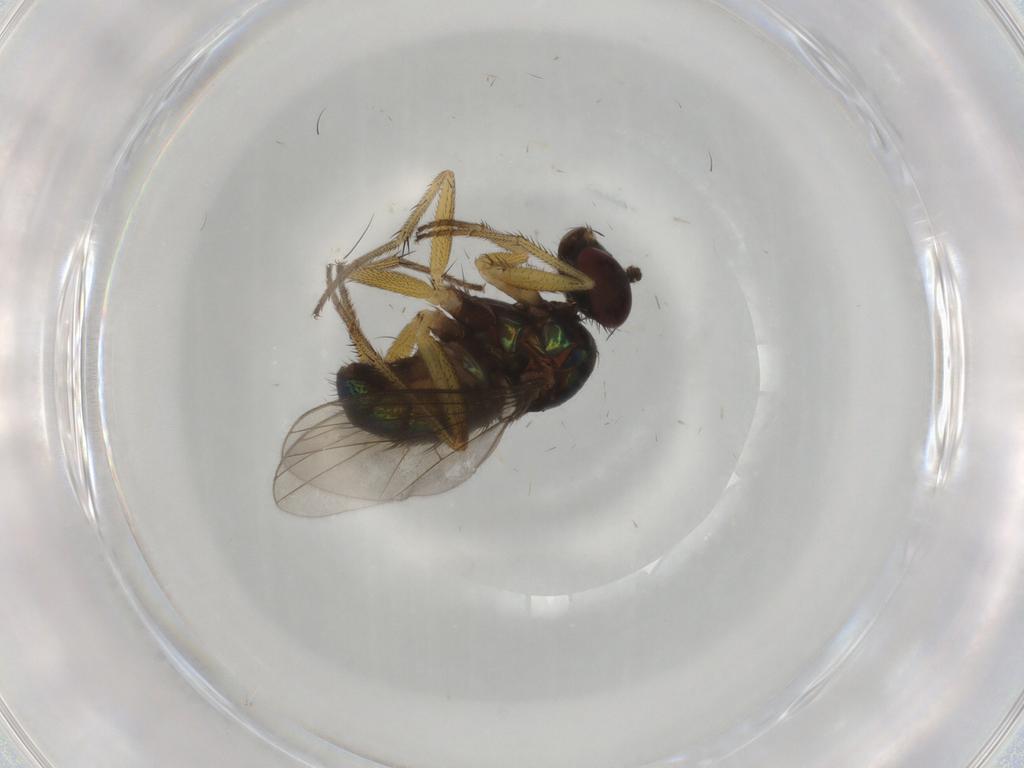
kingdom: Animalia
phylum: Arthropoda
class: Insecta
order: Diptera
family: Dolichopodidae
